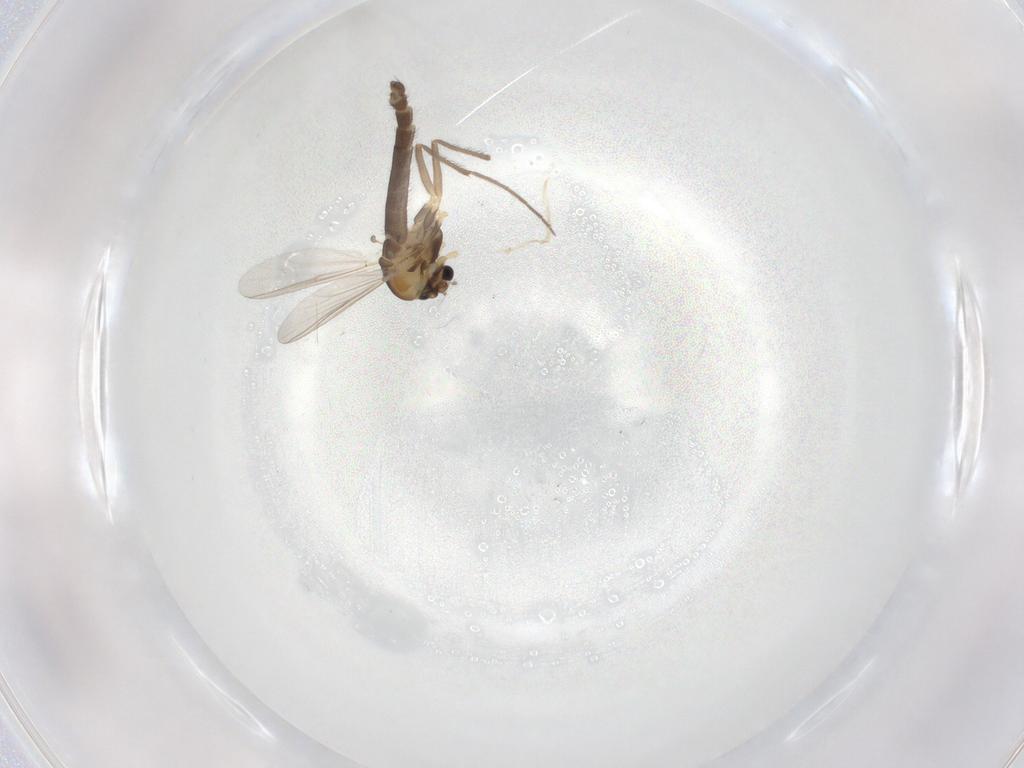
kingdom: Animalia
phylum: Arthropoda
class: Insecta
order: Diptera
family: Chironomidae
